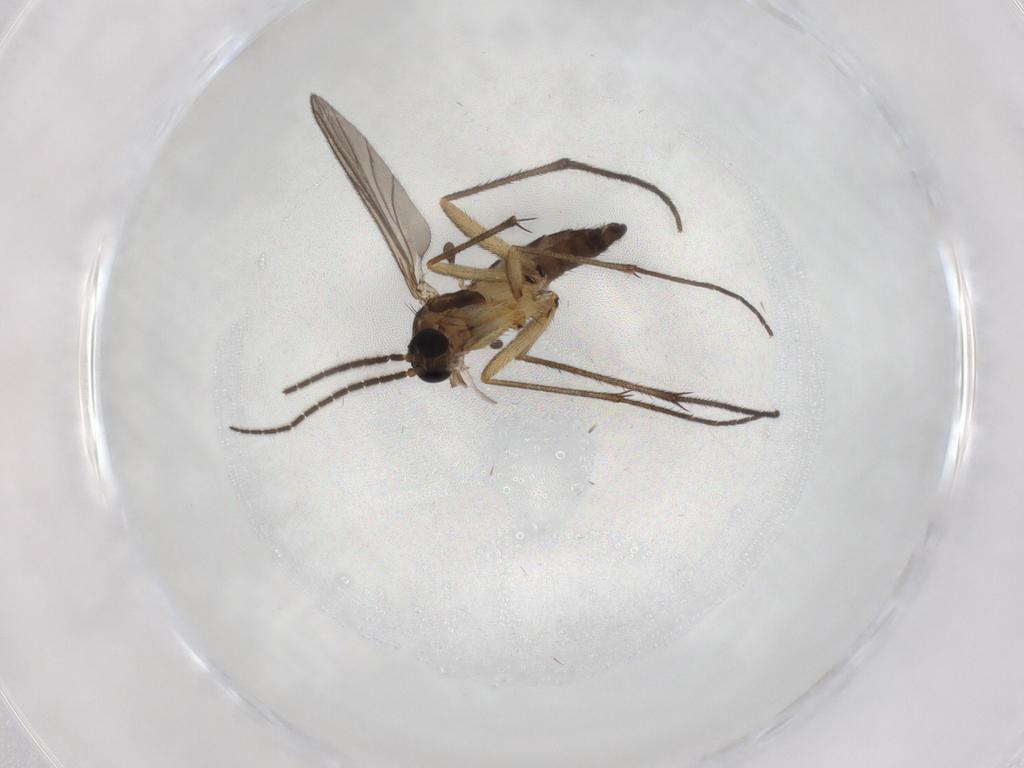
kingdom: Animalia
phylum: Arthropoda
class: Insecta
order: Diptera
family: Sciaridae
